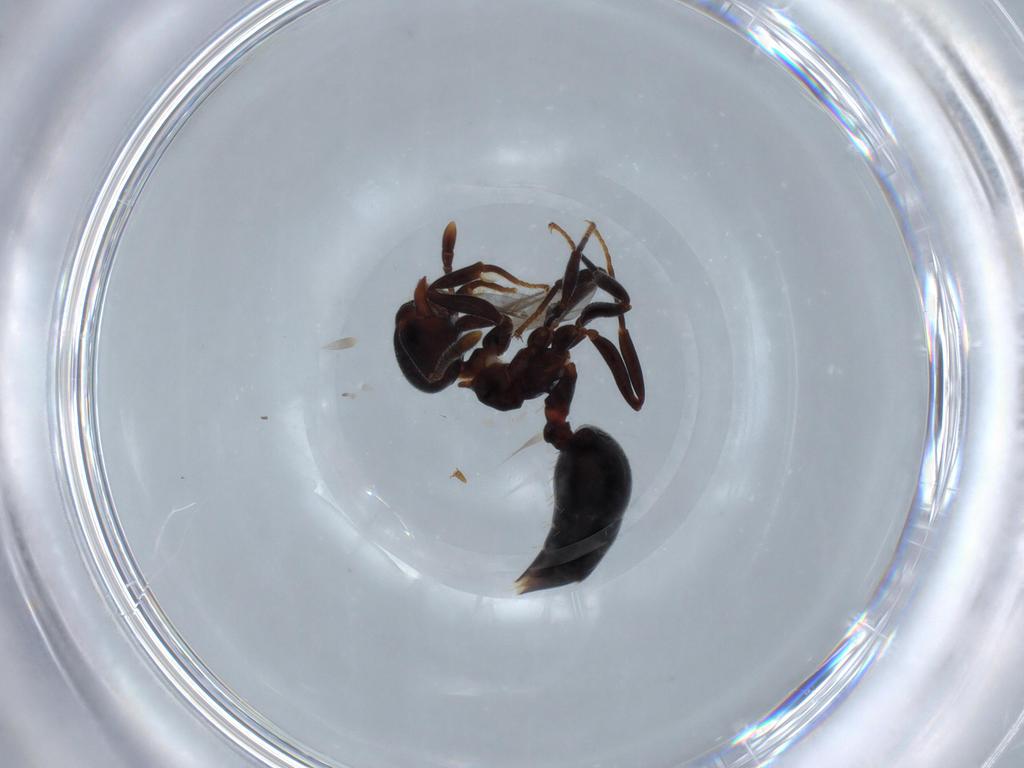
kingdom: Animalia
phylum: Arthropoda
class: Insecta
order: Hymenoptera
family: Formicidae
